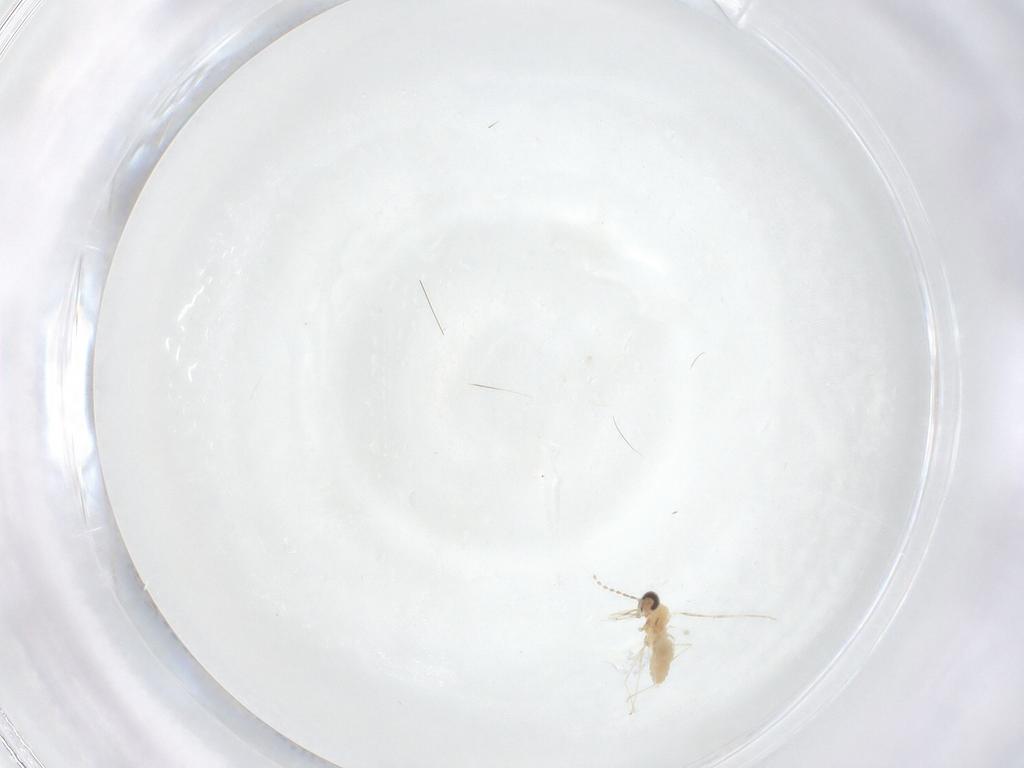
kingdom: Animalia
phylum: Arthropoda
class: Insecta
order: Diptera
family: Cecidomyiidae
